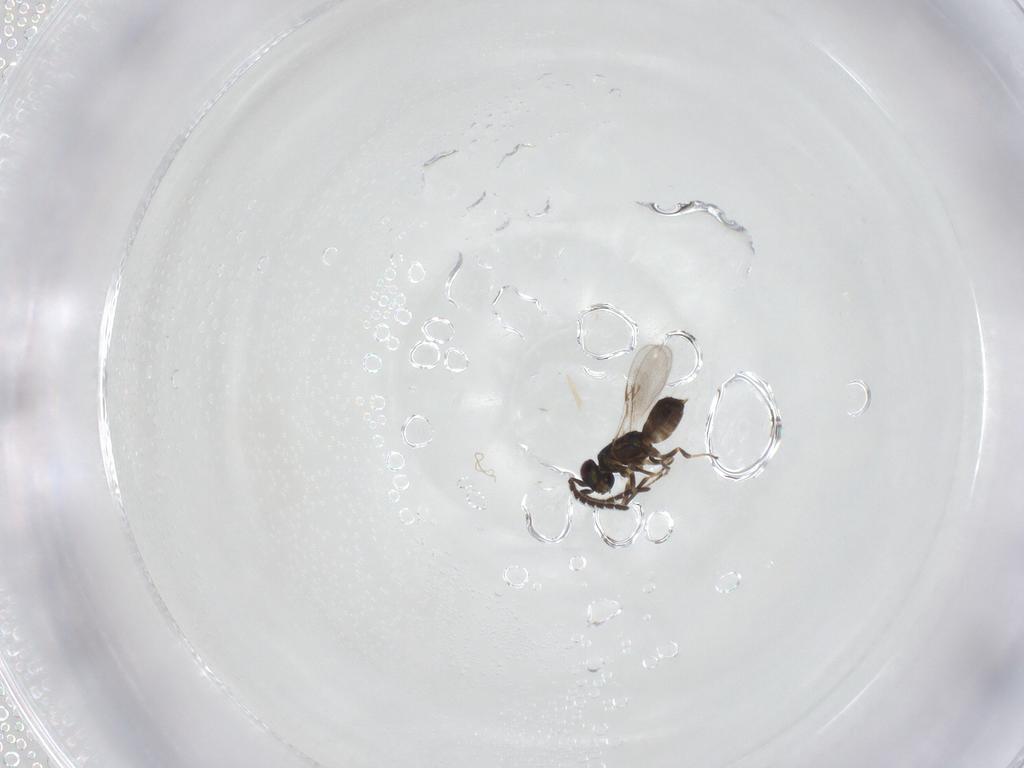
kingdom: Animalia
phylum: Arthropoda
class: Insecta
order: Hymenoptera
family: Encyrtidae
